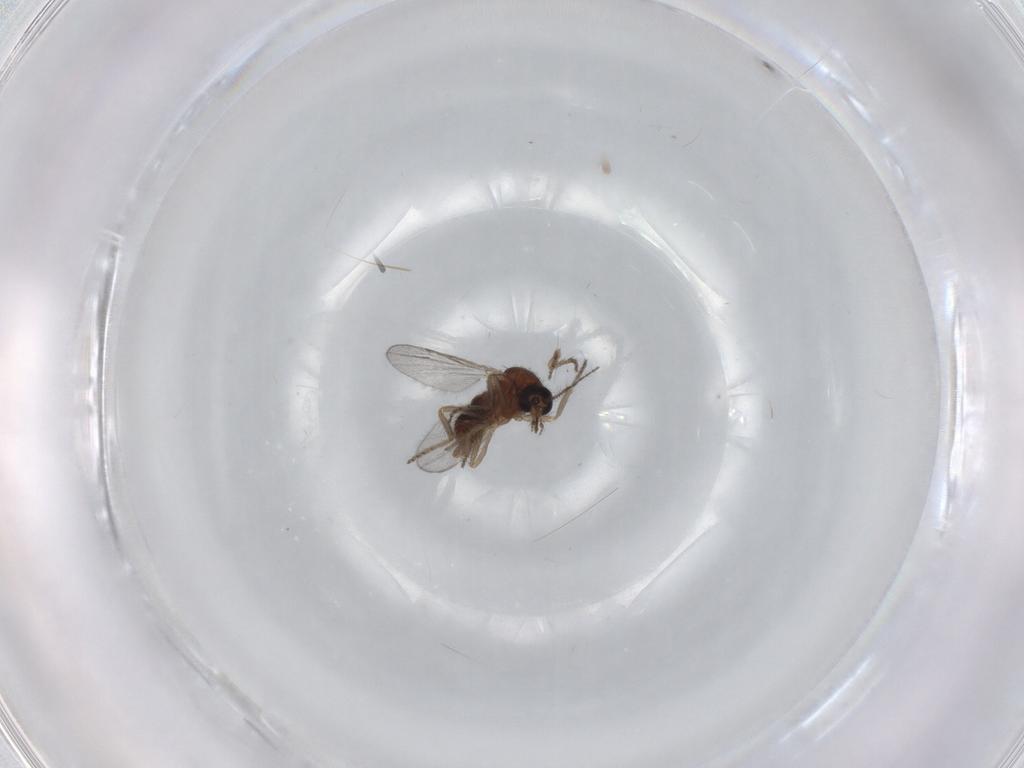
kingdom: Animalia
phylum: Arthropoda
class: Insecta
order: Diptera
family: Ceratopogonidae
